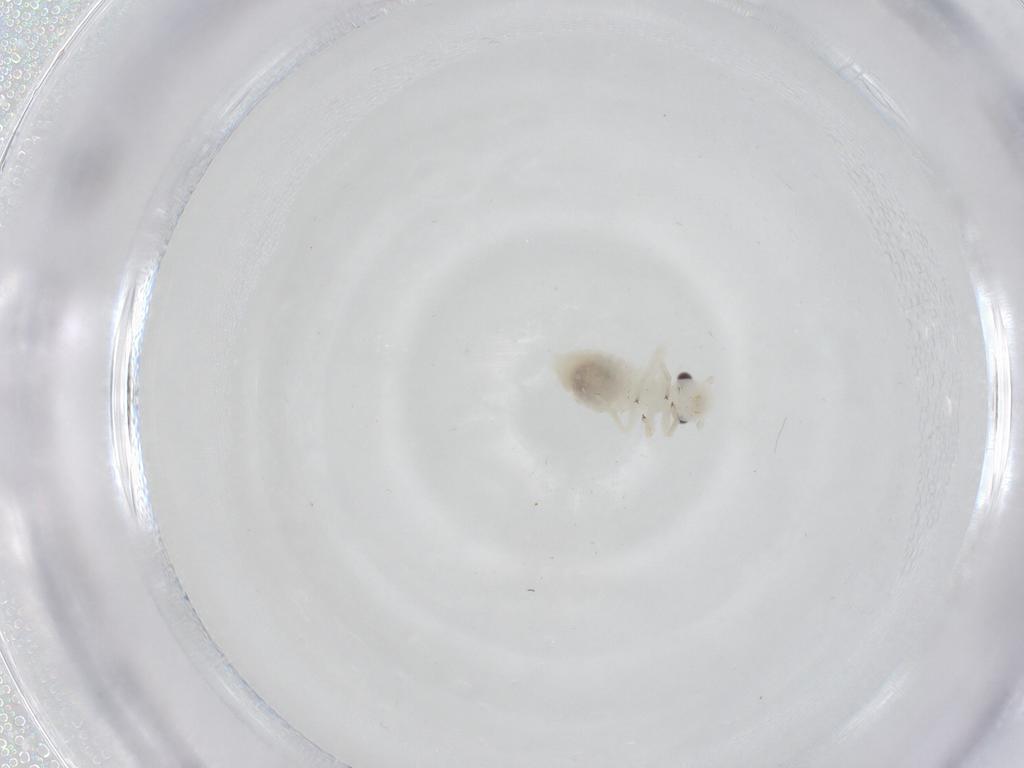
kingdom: Animalia
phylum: Arthropoda
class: Insecta
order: Psocodea
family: Caeciliusidae
